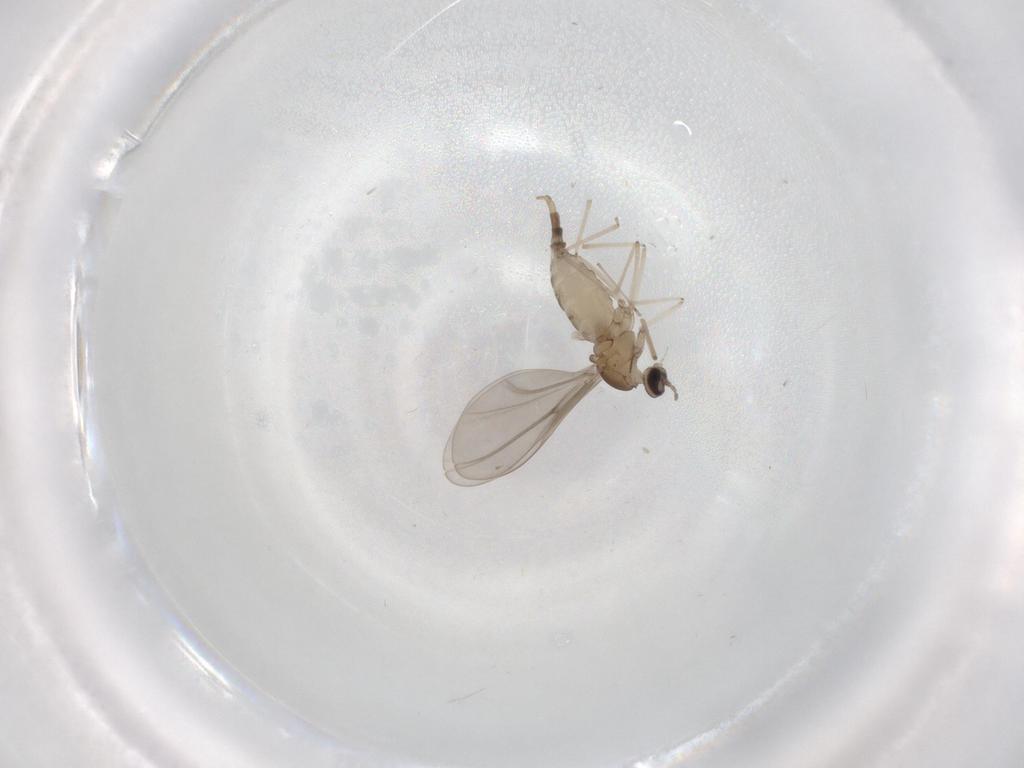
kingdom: Animalia
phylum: Arthropoda
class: Insecta
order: Diptera
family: Cecidomyiidae
